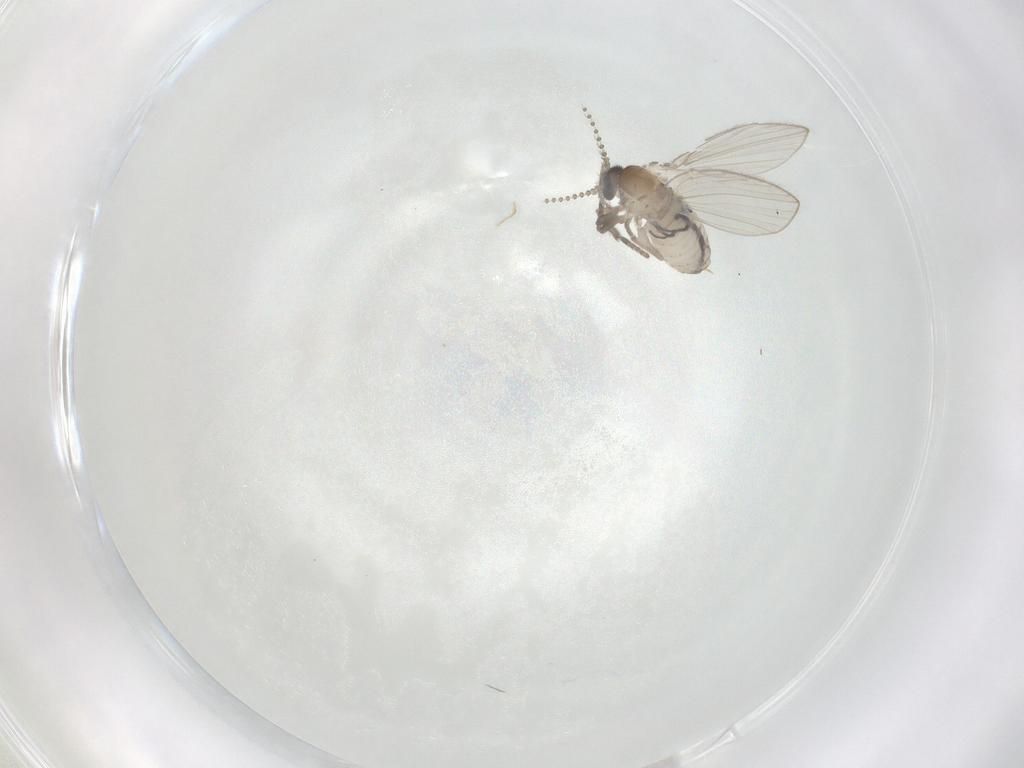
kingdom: Animalia
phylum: Arthropoda
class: Insecta
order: Diptera
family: Psychodidae
